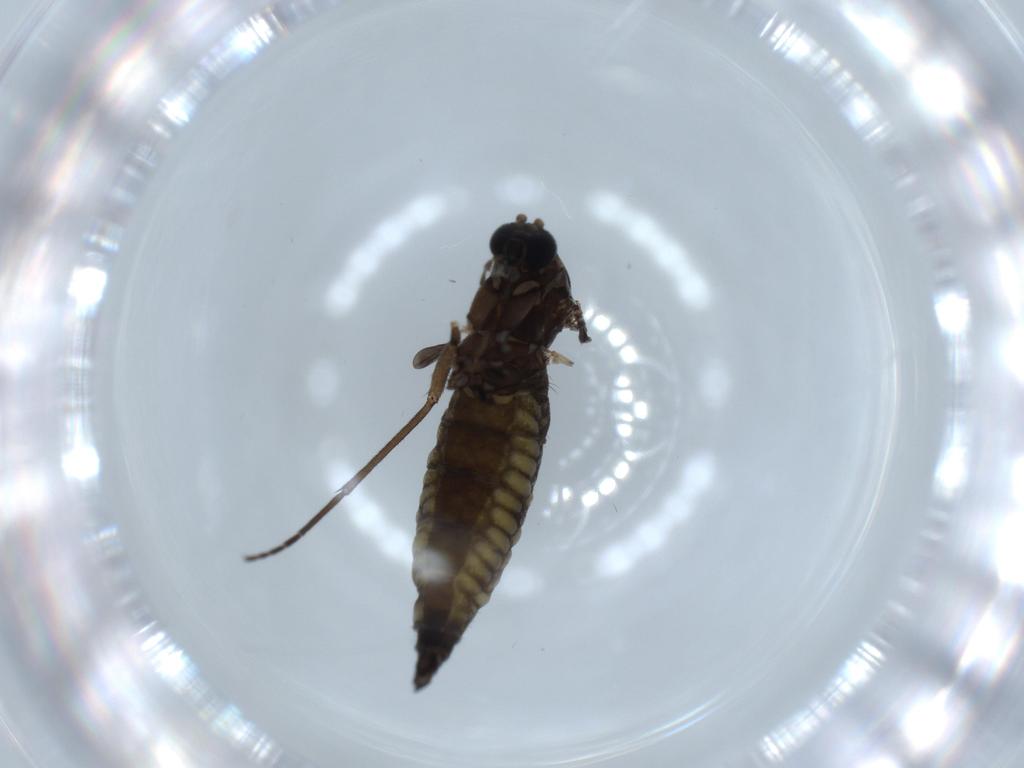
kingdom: Animalia
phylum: Arthropoda
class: Insecta
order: Diptera
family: Sciaridae
